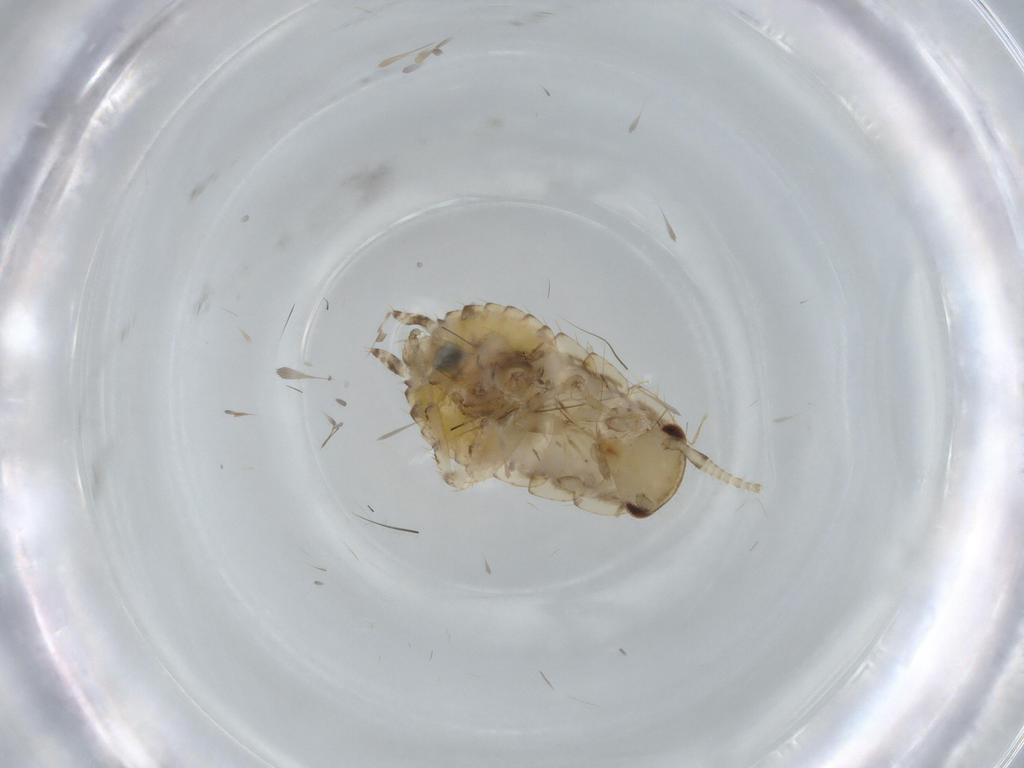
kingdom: Animalia
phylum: Arthropoda
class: Insecta
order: Blattodea
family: Ectobiidae
